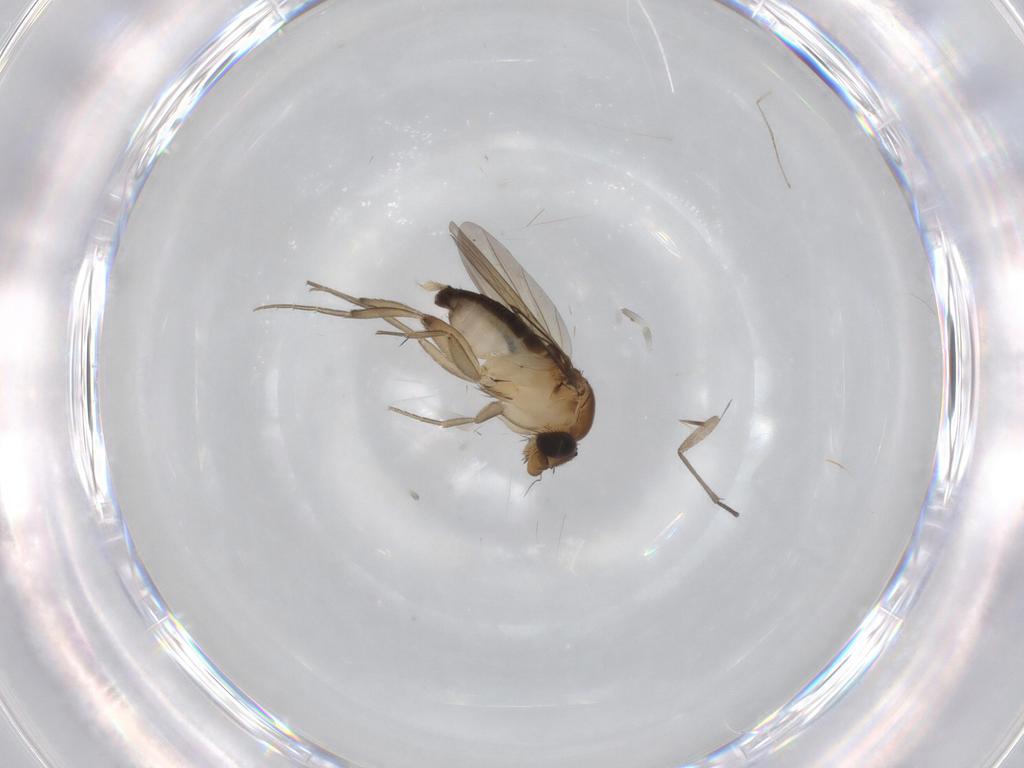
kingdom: Animalia
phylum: Arthropoda
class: Insecta
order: Diptera
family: Phoridae
